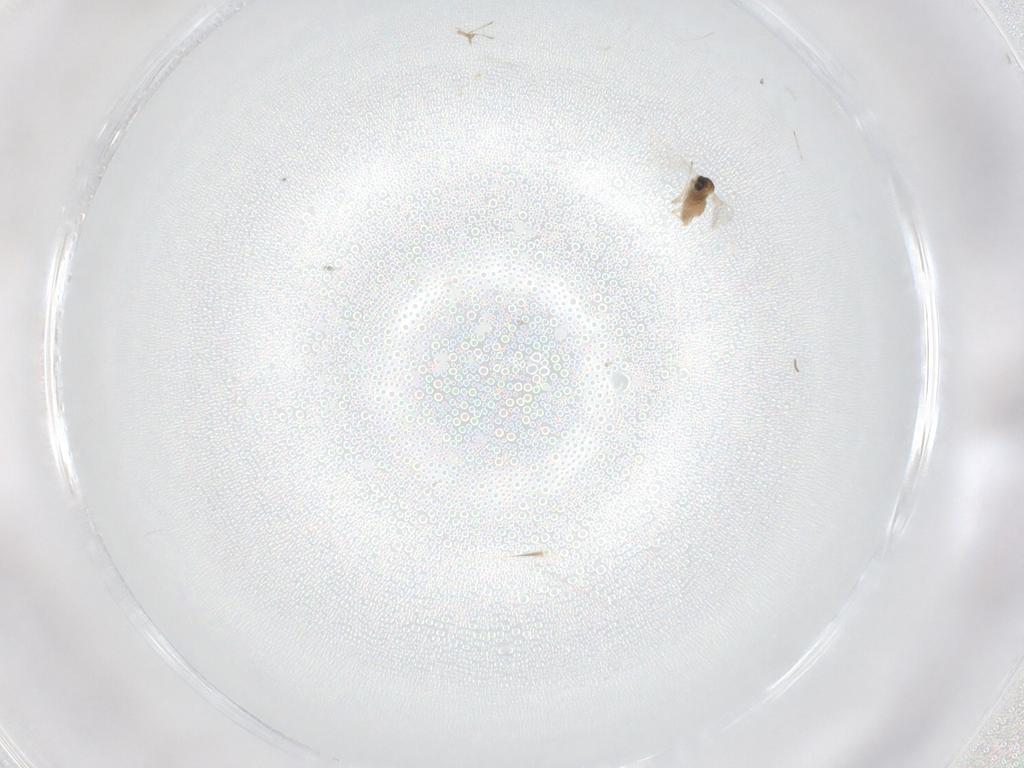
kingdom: Animalia
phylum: Arthropoda
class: Insecta
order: Diptera
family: Cecidomyiidae
